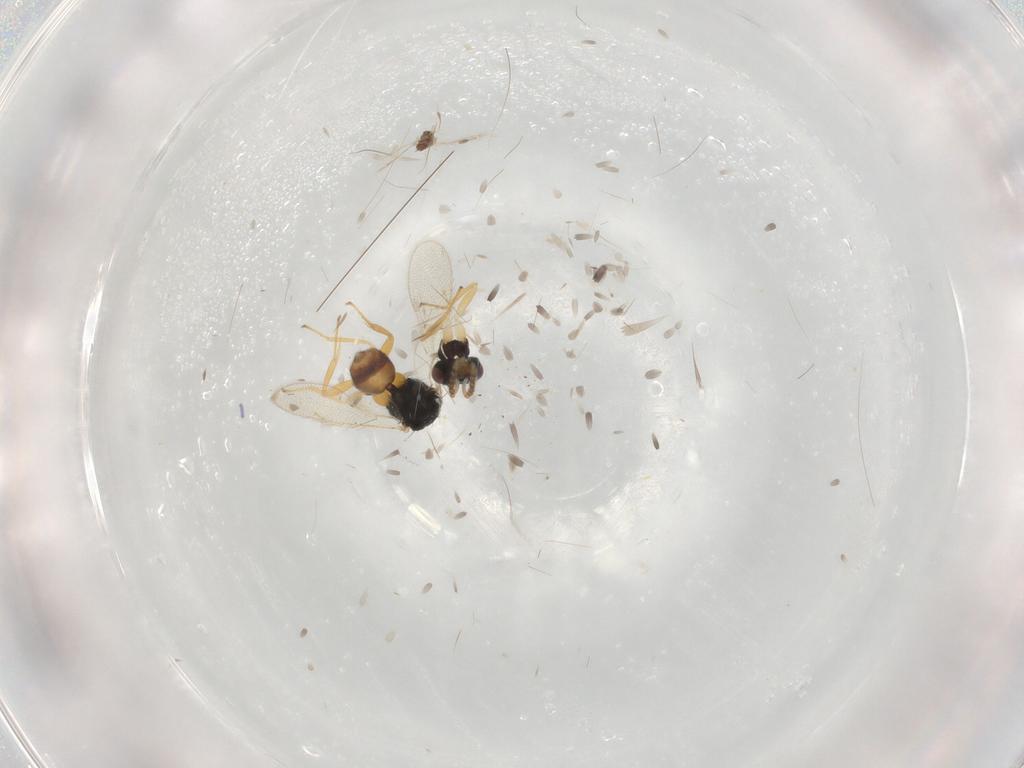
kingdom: Animalia
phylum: Arthropoda
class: Insecta
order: Hymenoptera
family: Eulophidae
